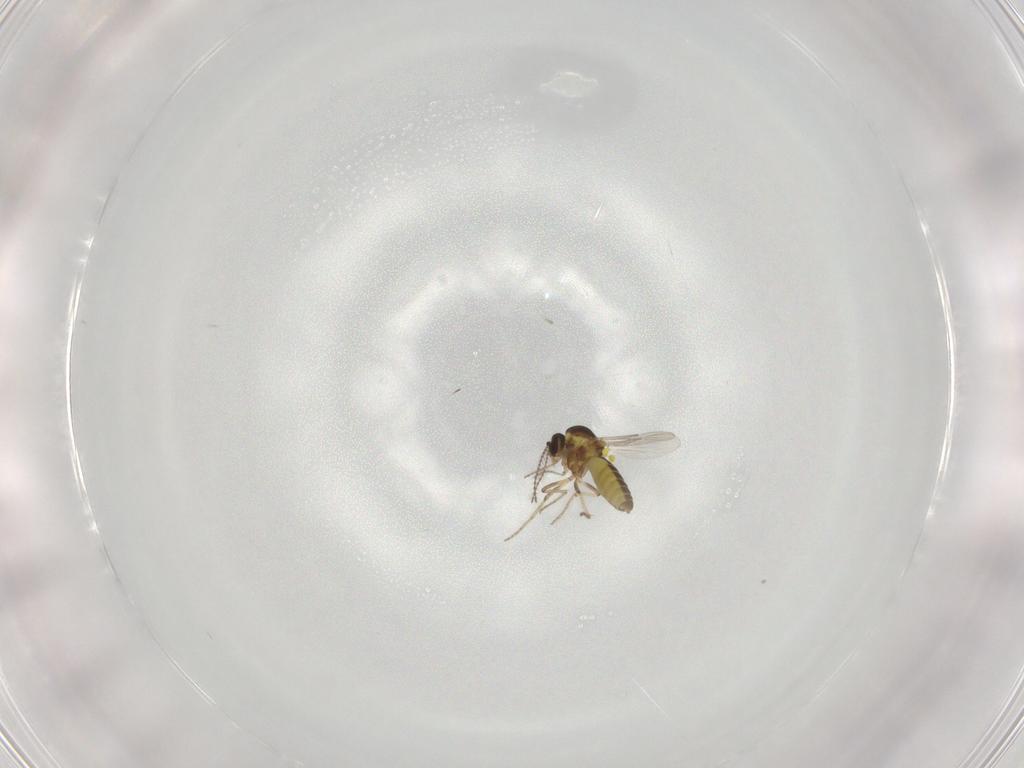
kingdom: Animalia
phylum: Arthropoda
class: Insecta
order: Diptera
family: Ceratopogonidae
